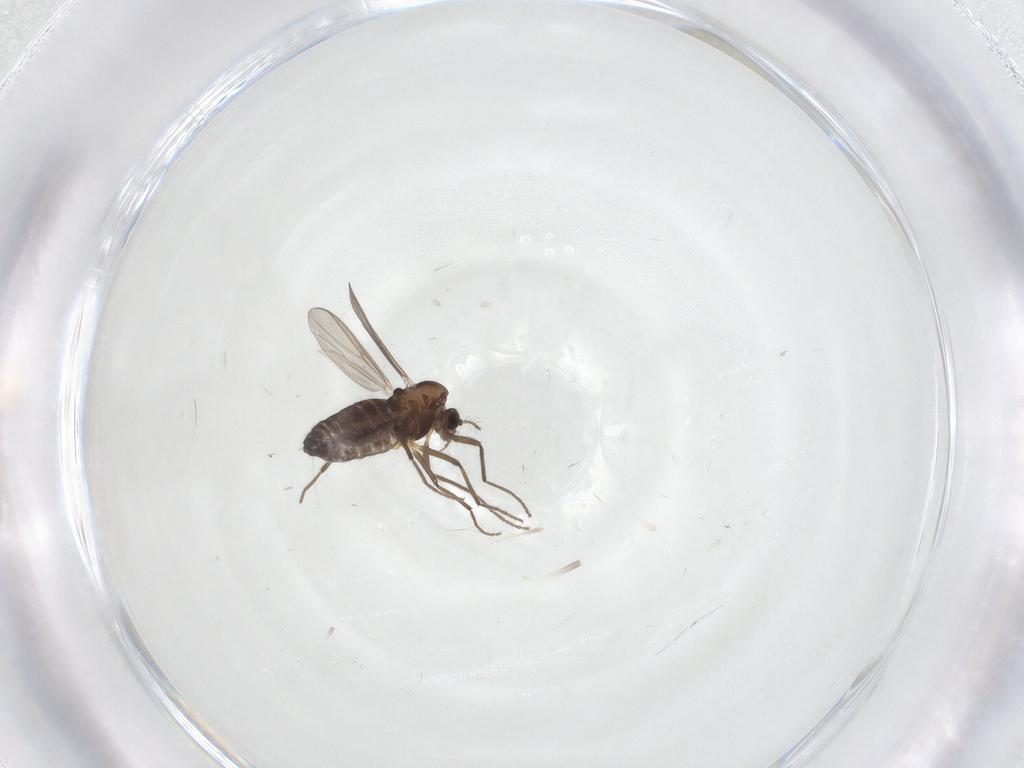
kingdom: Animalia
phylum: Arthropoda
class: Insecta
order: Diptera
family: Chironomidae
